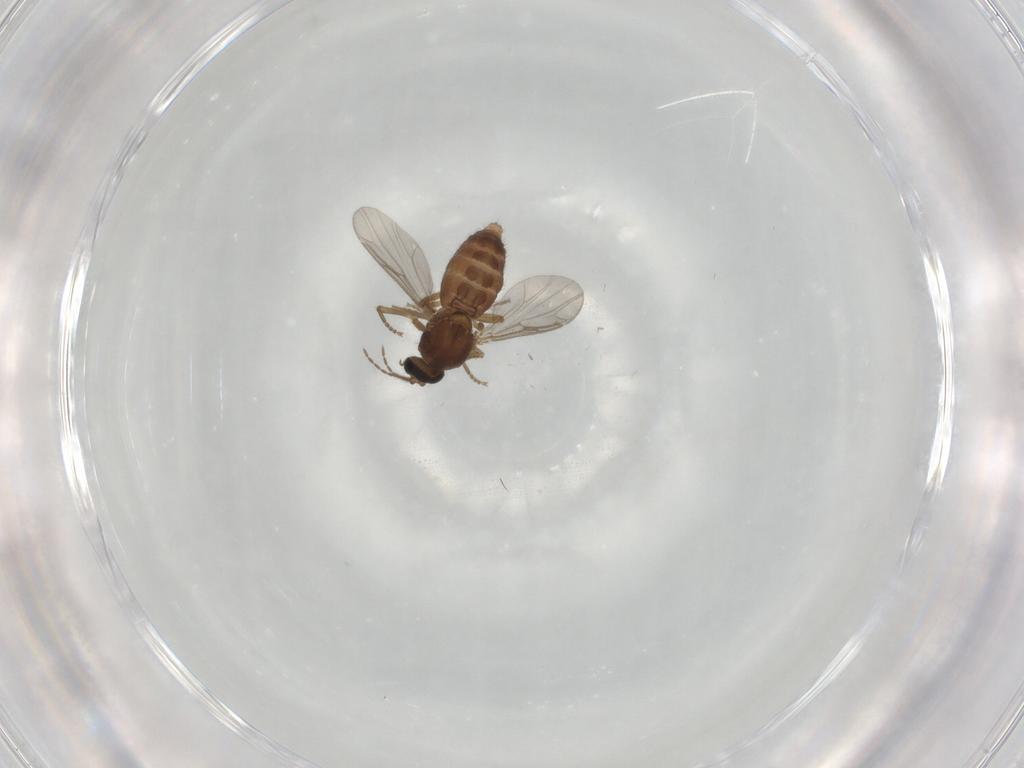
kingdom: Animalia
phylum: Arthropoda
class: Insecta
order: Diptera
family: Ceratopogonidae
